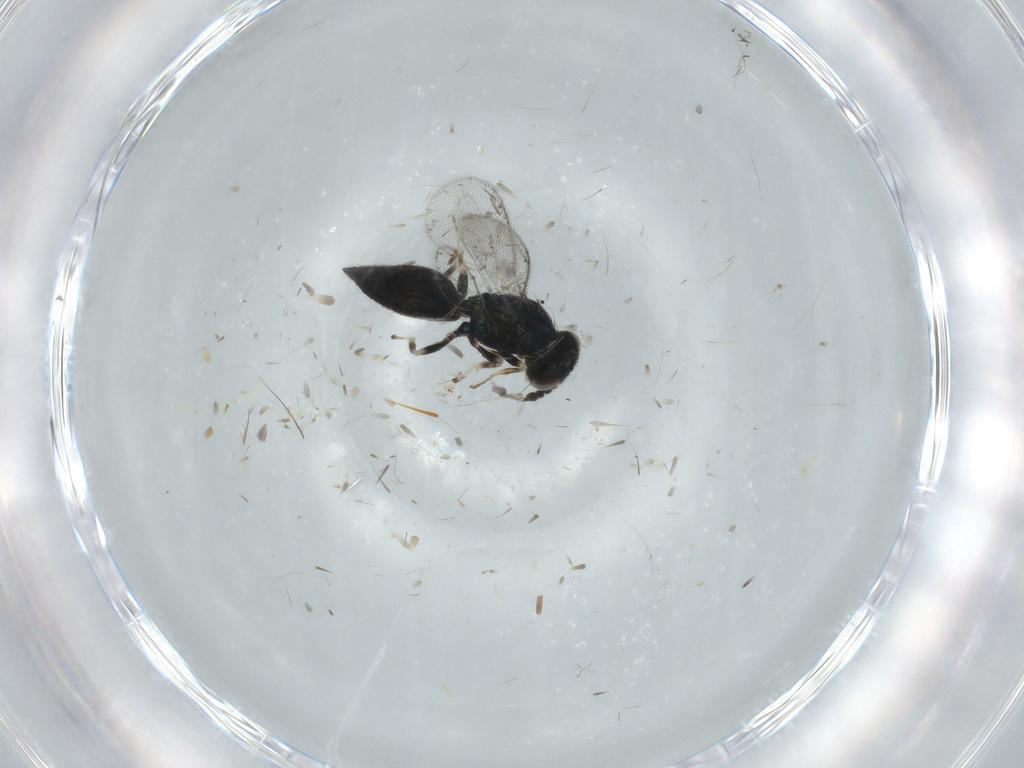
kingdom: Animalia
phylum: Arthropoda
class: Insecta
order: Hymenoptera
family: Eulophidae
